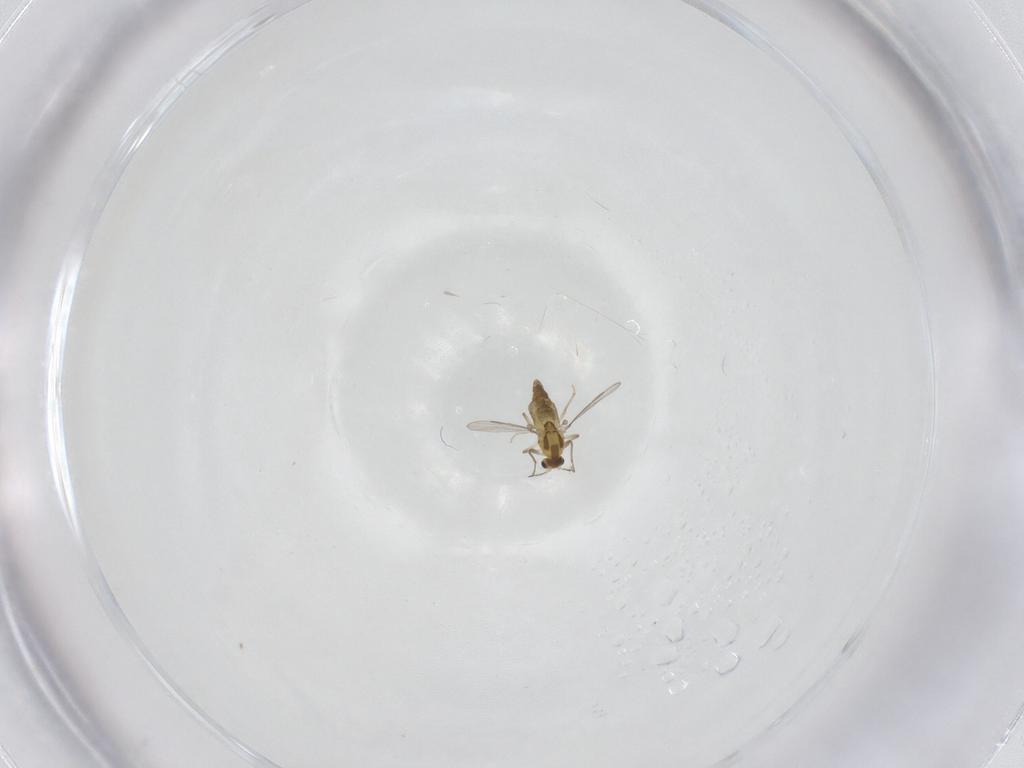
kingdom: Animalia
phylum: Arthropoda
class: Insecta
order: Diptera
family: Chironomidae
